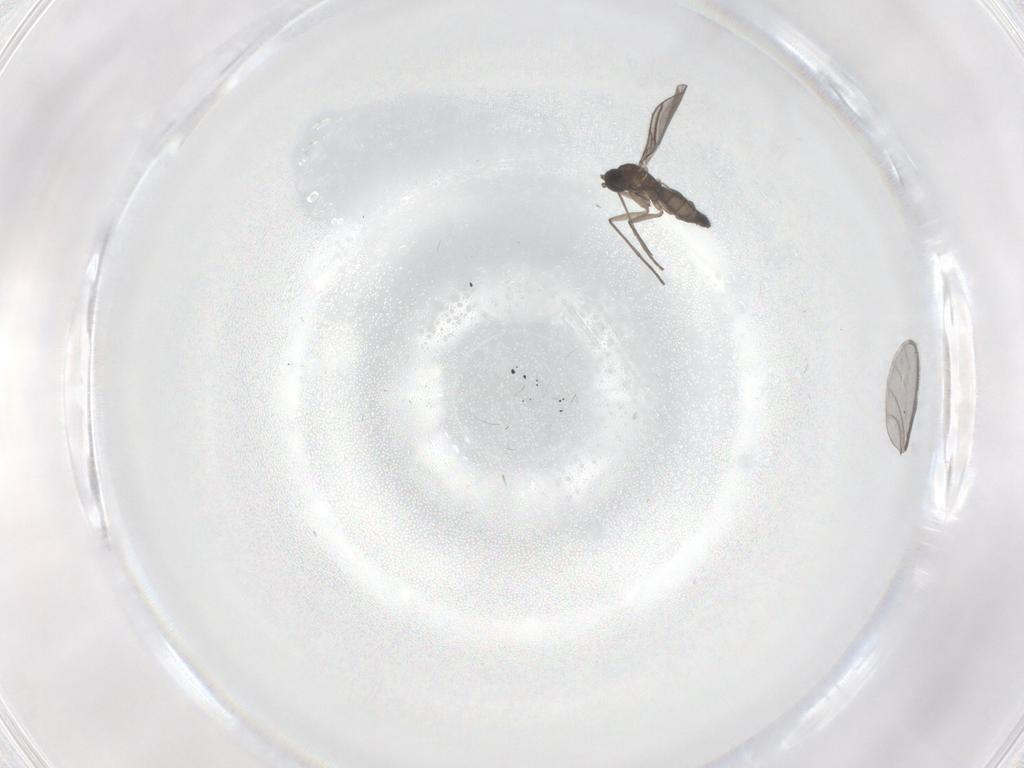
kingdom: Animalia
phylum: Arthropoda
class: Insecta
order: Diptera
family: Sciaridae
